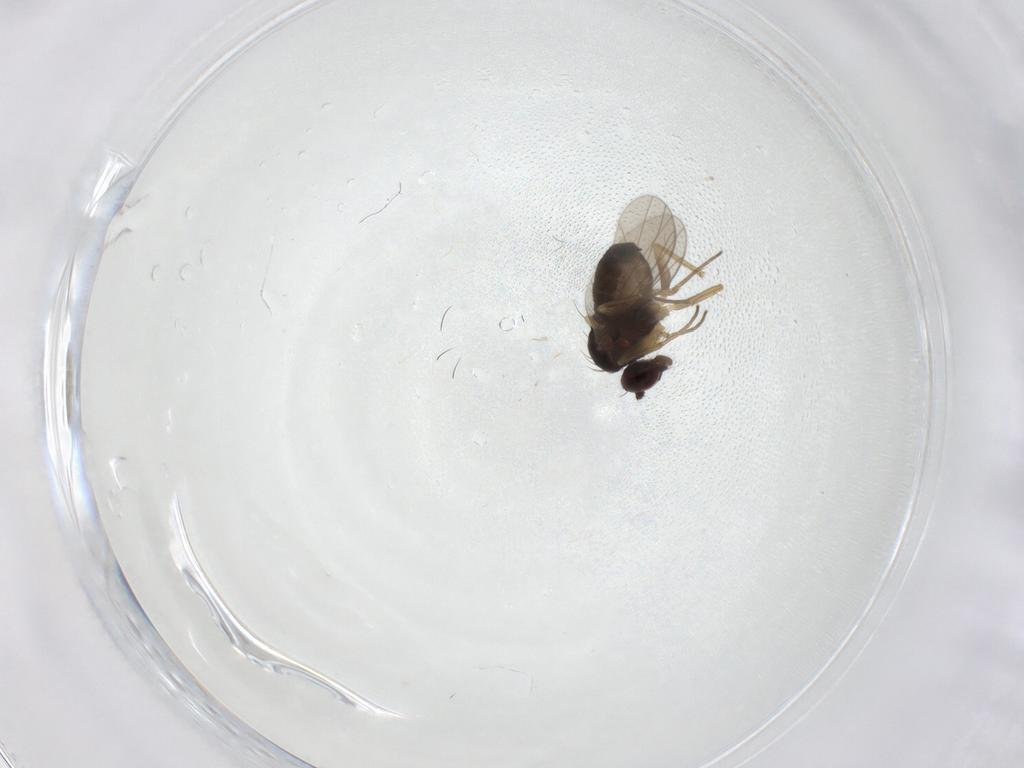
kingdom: Animalia
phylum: Arthropoda
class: Insecta
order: Diptera
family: Dolichopodidae
